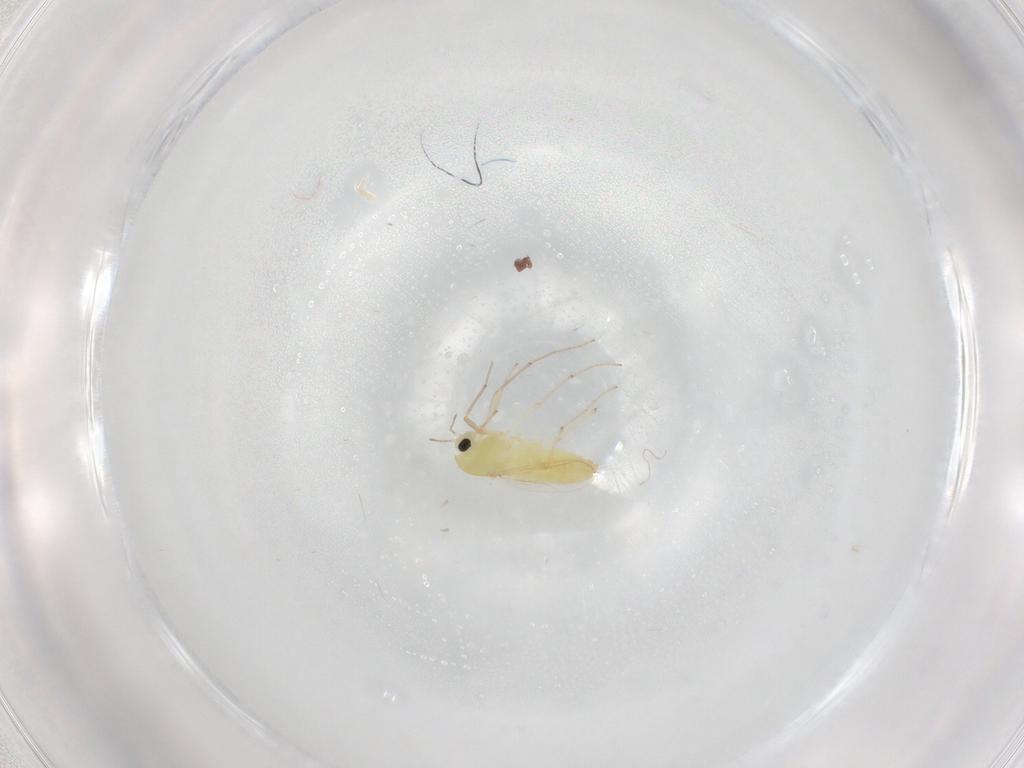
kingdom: Animalia
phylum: Arthropoda
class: Insecta
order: Diptera
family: Chironomidae
